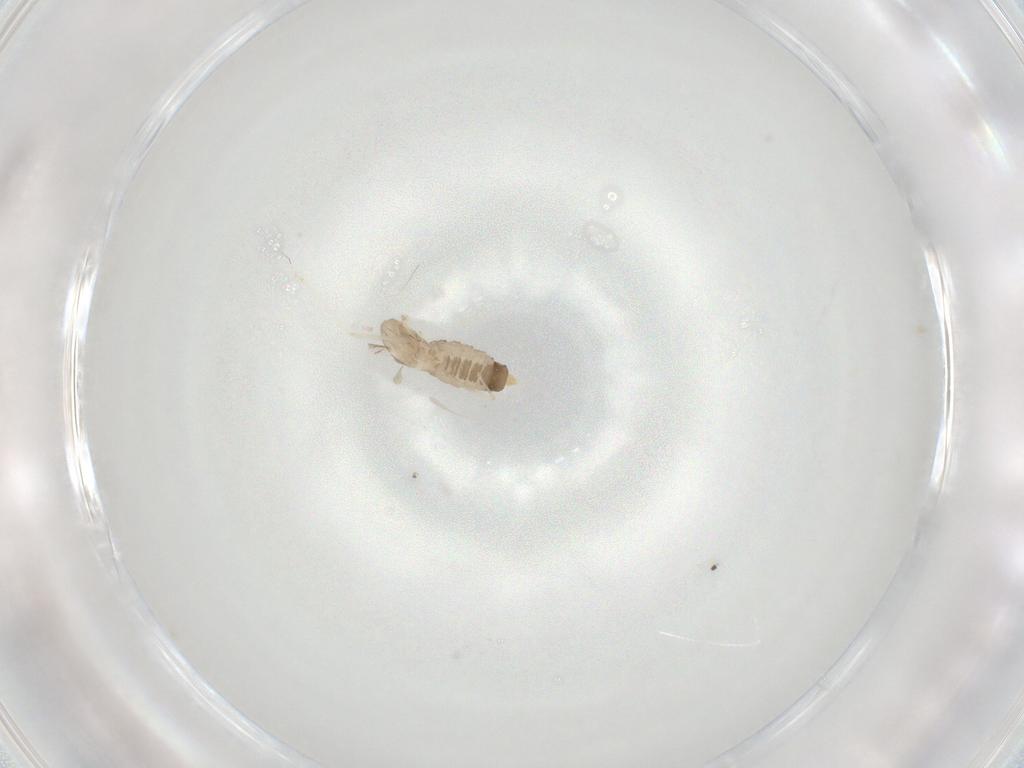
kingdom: Animalia
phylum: Arthropoda
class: Insecta
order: Diptera
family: Cecidomyiidae
